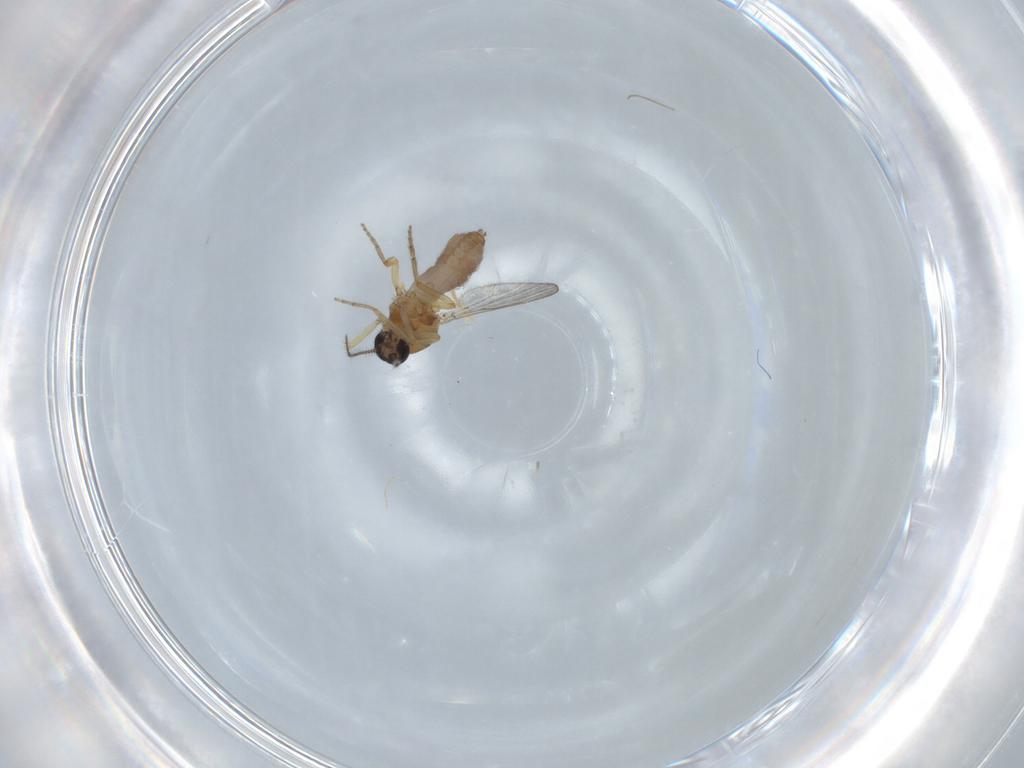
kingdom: Animalia
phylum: Arthropoda
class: Insecta
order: Diptera
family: Ceratopogonidae
